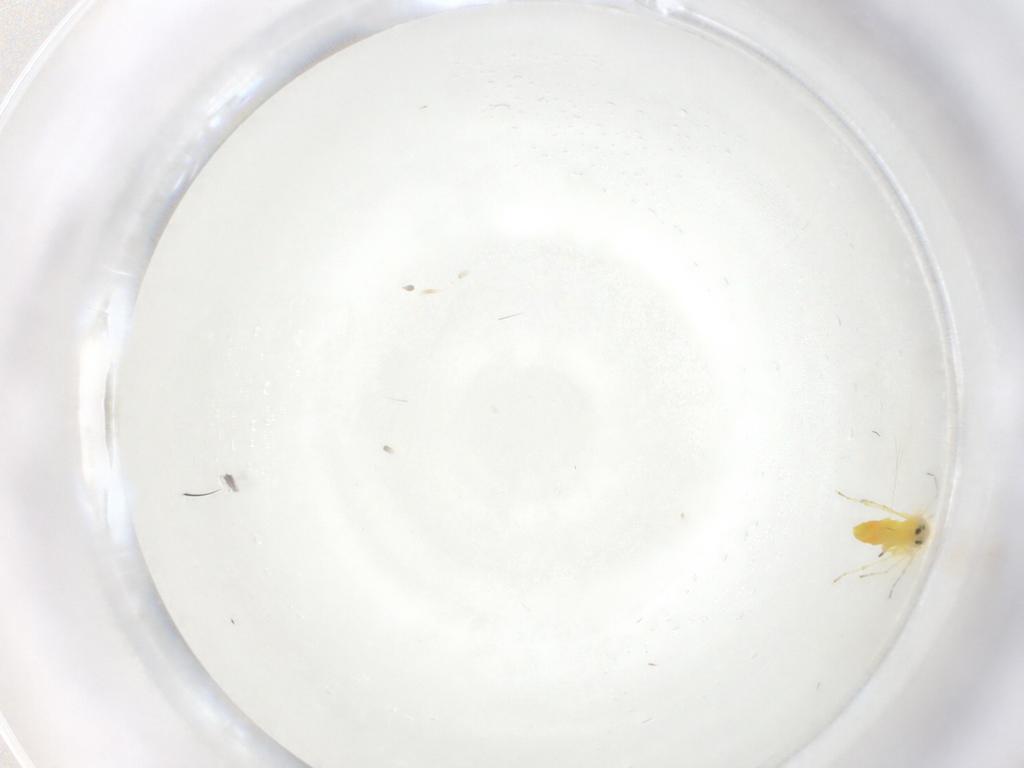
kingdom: Animalia
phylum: Arthropoda
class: Insecta
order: Hemiptera
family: Aleyrodidae
